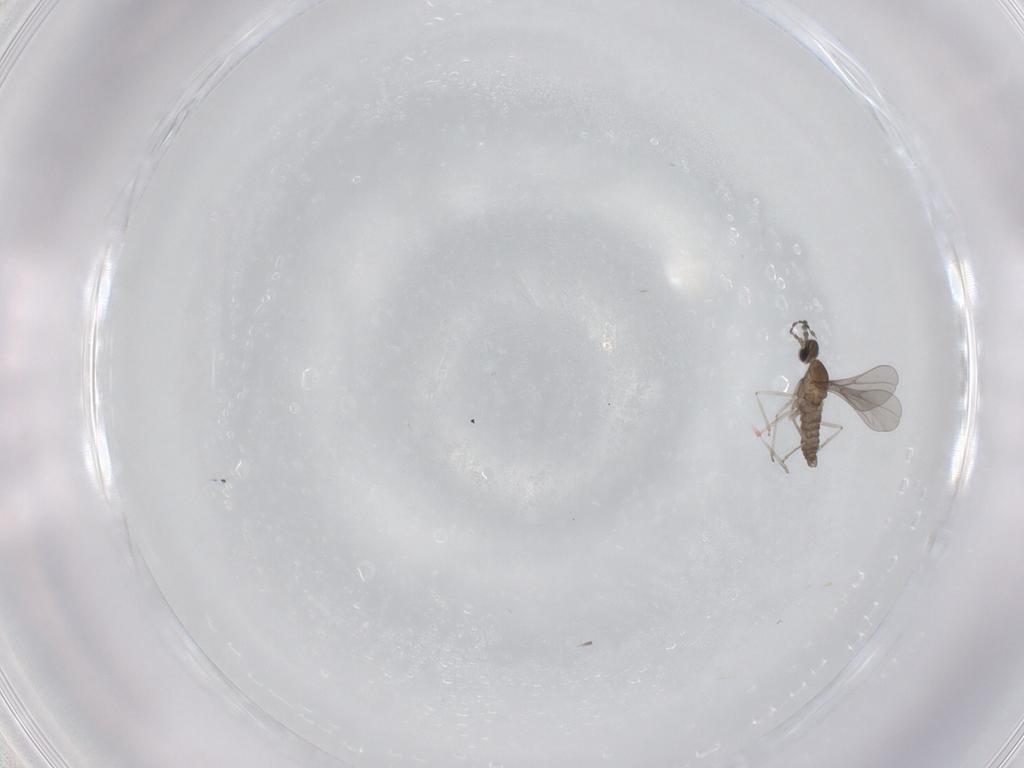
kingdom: Animalia
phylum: Arthropoda
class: Insecta
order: Diptera
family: Cecidomyiidae
